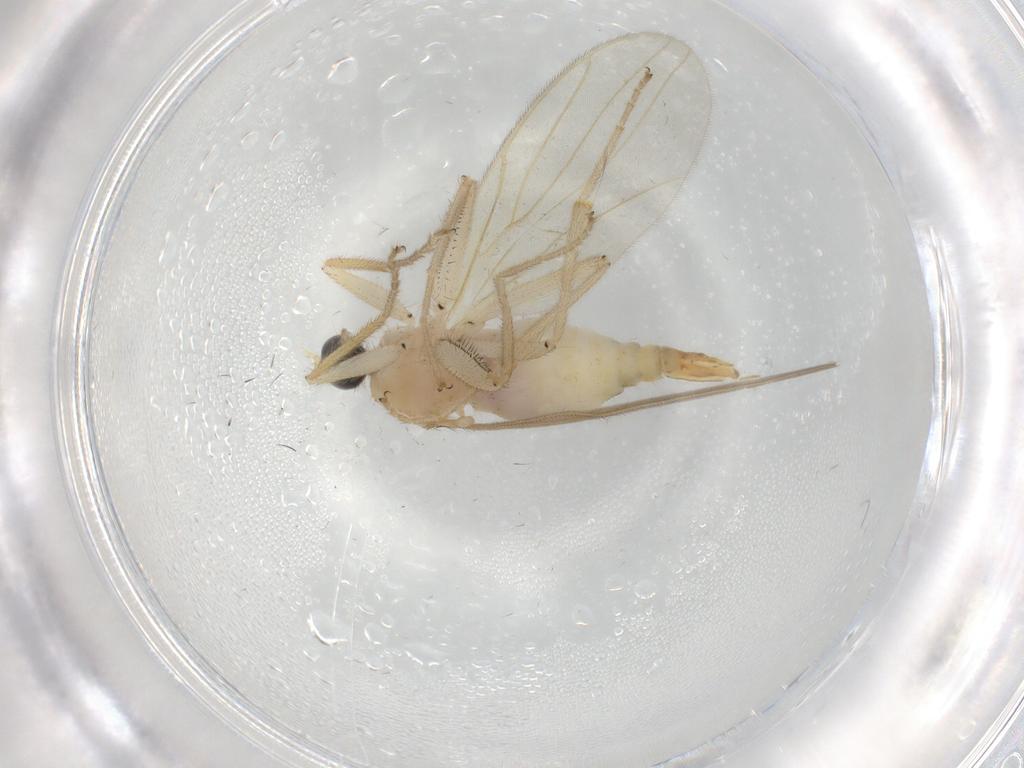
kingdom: Animalia
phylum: Arthropoda
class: Insecta
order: Diptera
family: Hybotidae
